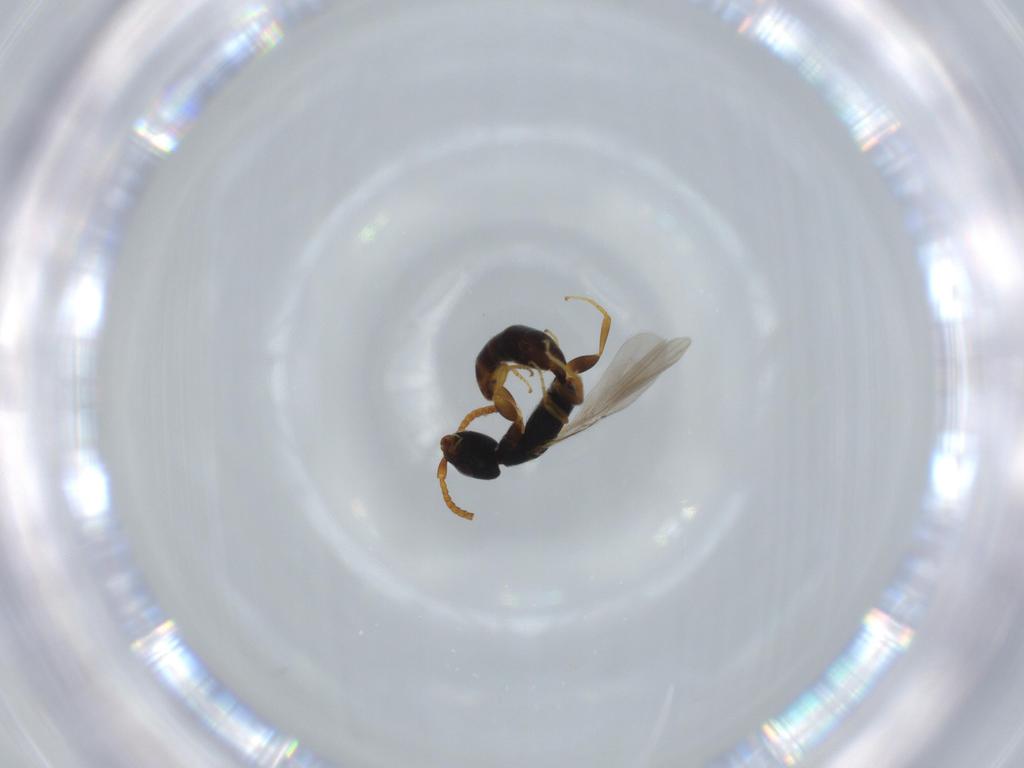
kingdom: Animalia
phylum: Arthropoda
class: Insecta
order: Hymenoptera
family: Bethylidae
